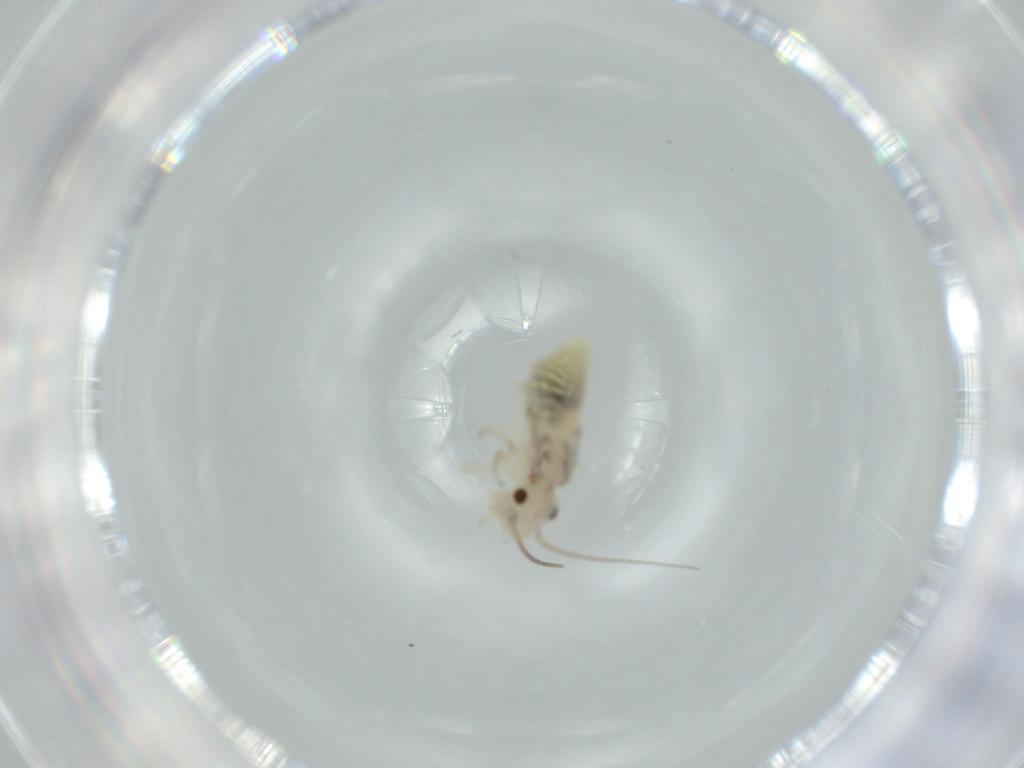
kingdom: Animalia
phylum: Arthropoda
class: Insecta
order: Psocodea
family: Caeciliusidae
